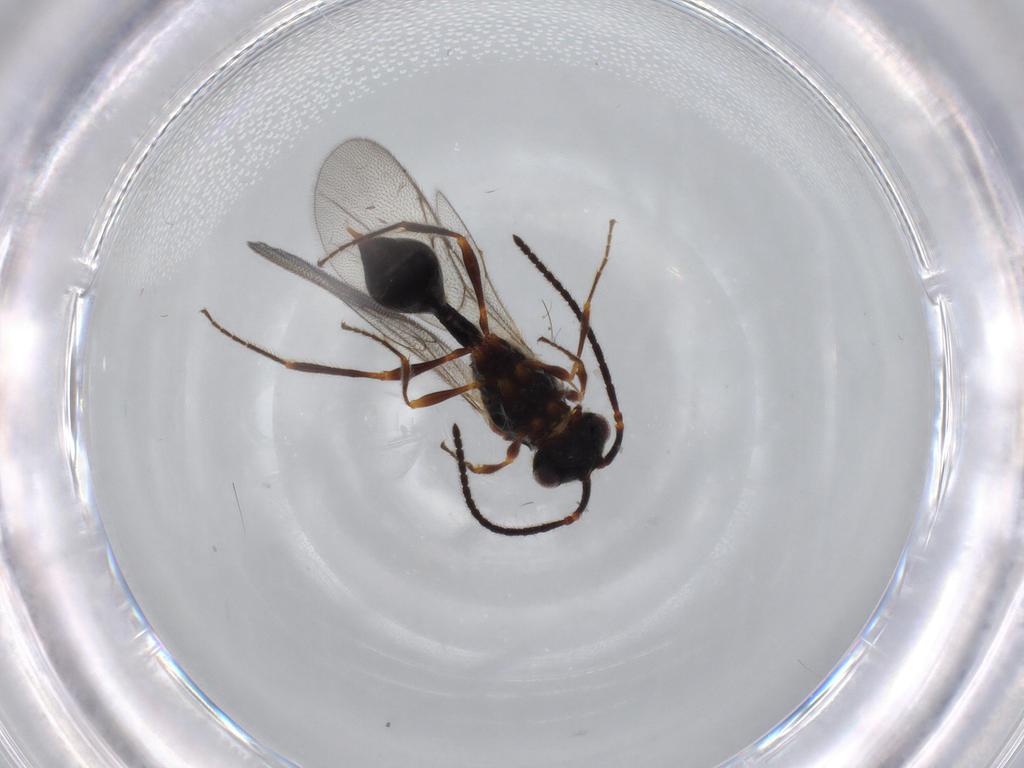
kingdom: Animalia
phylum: Arthropoda
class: Insecta
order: Hymenoptera
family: Diapriidae
